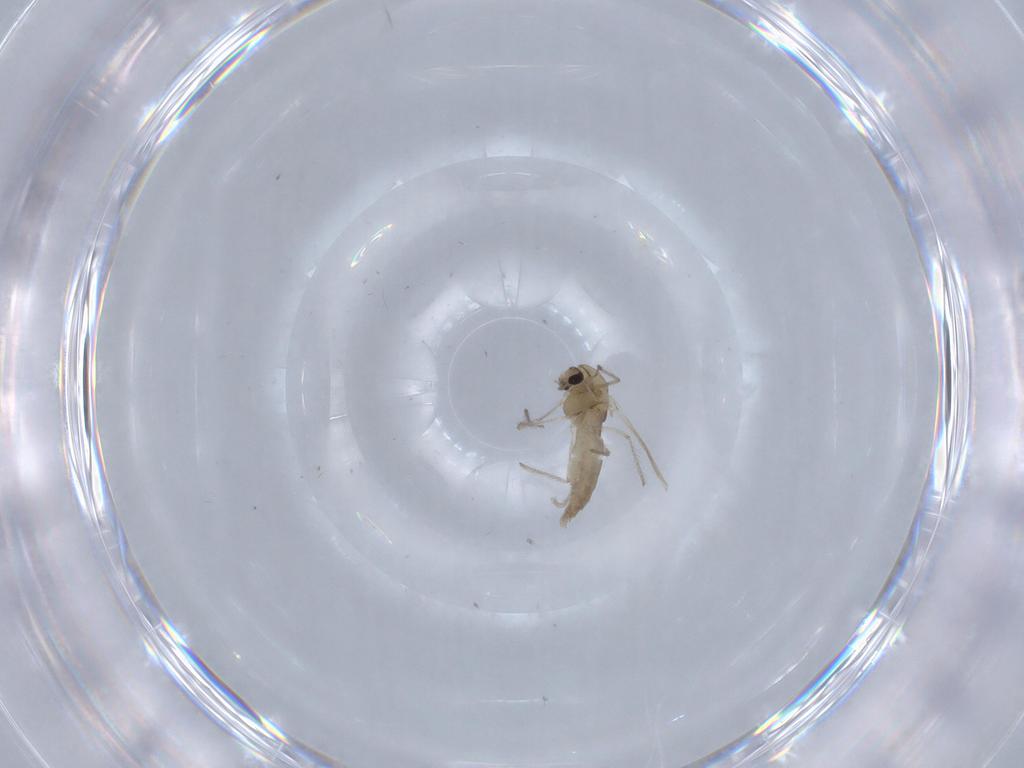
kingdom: Animalia
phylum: Arthropoda
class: Insecta
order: Diptera
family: Chironomidae
